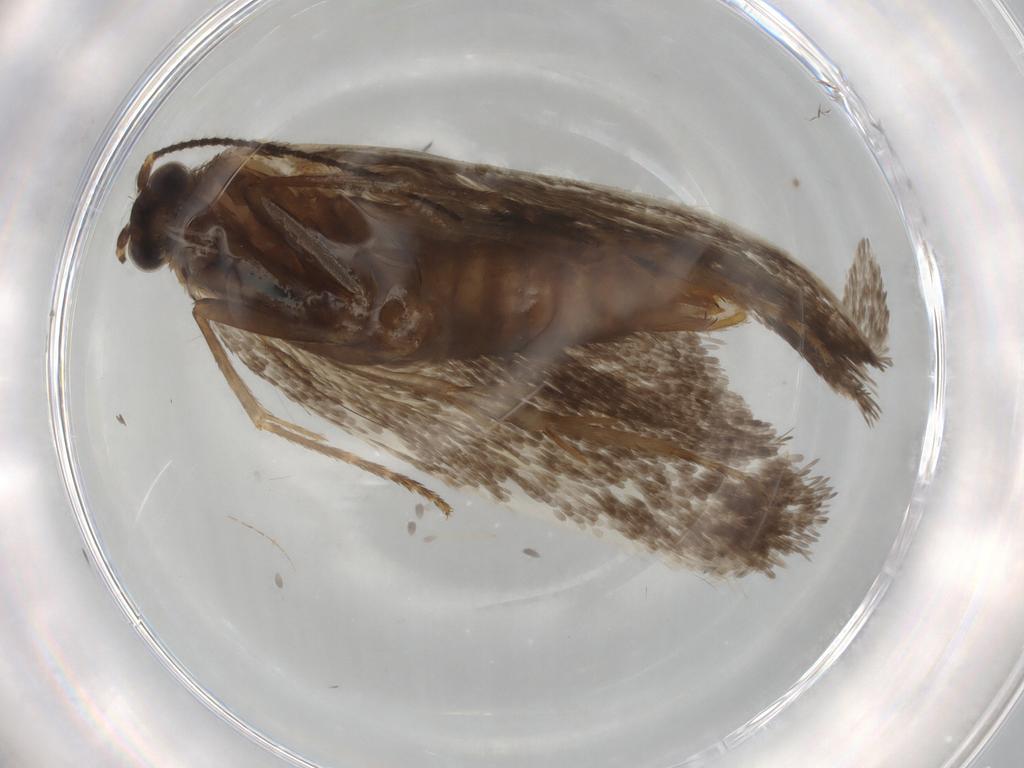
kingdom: Animalia
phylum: Arthropoda
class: Insecta
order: Lepidoptera
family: Eriocottidae
